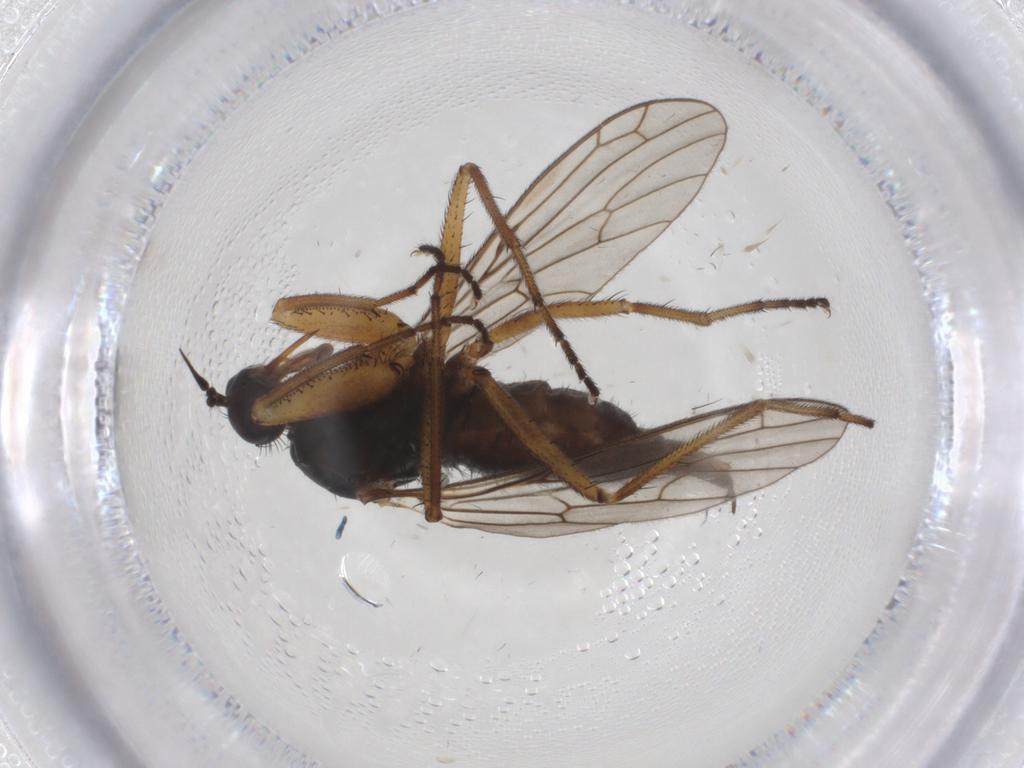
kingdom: Animalia
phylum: Arthropoda
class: Insecta
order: Diptera
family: Empididae
